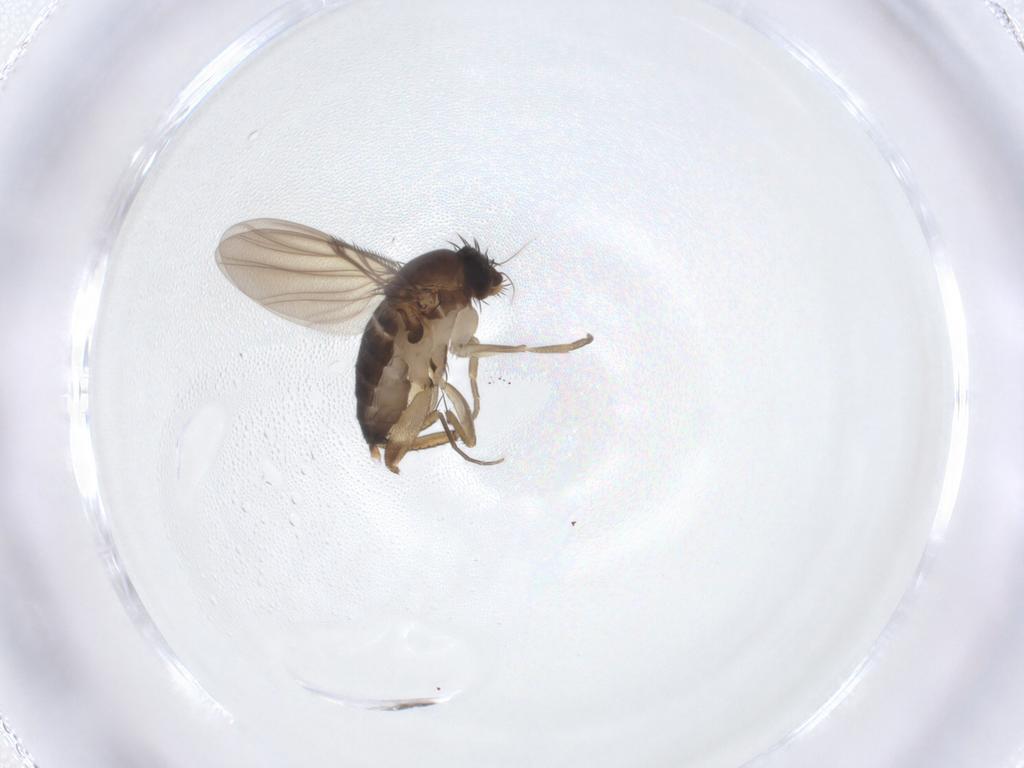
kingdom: Animalia
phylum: Arthropoda
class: Insecta
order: Diptera
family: Phoridae
